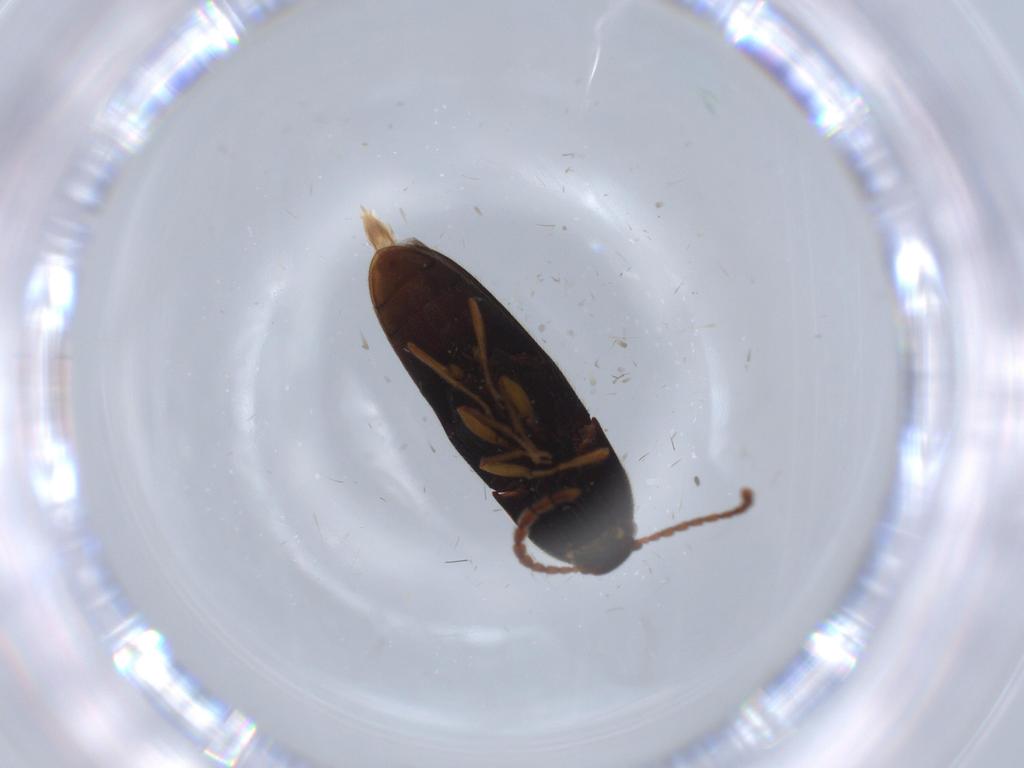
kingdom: Animalia
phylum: Arthropoda
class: Insecta
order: Coleoptera
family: Elateridae
